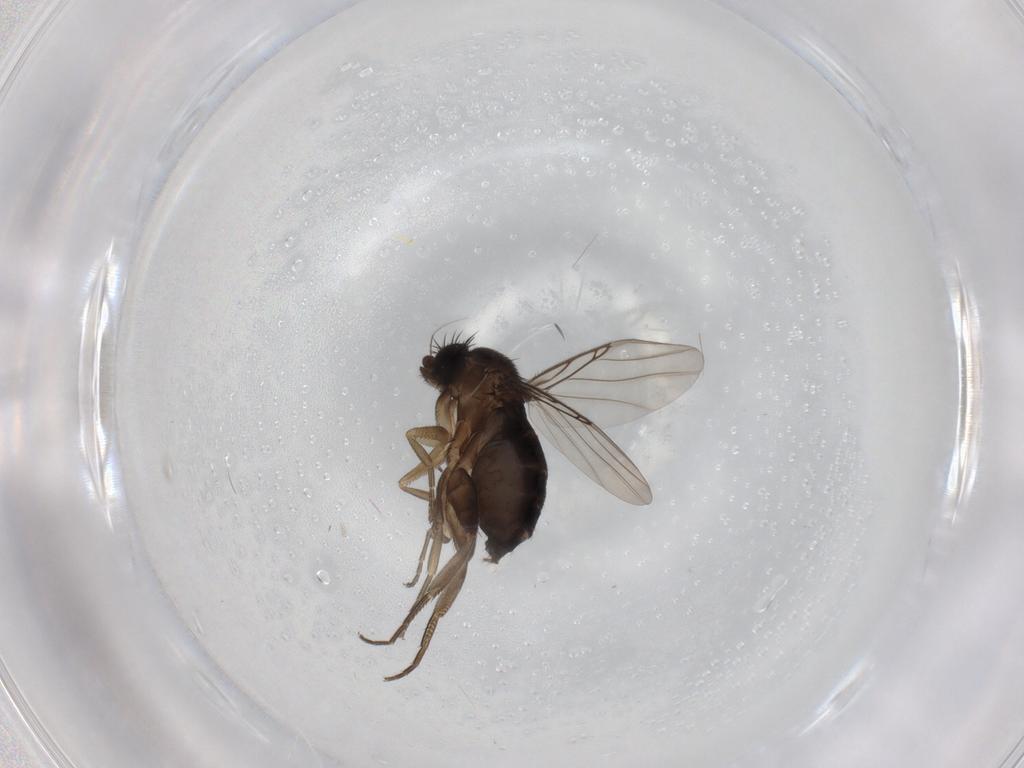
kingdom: Animalia
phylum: Arthropoda
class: Insecta
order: Diptera
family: Phoridae
